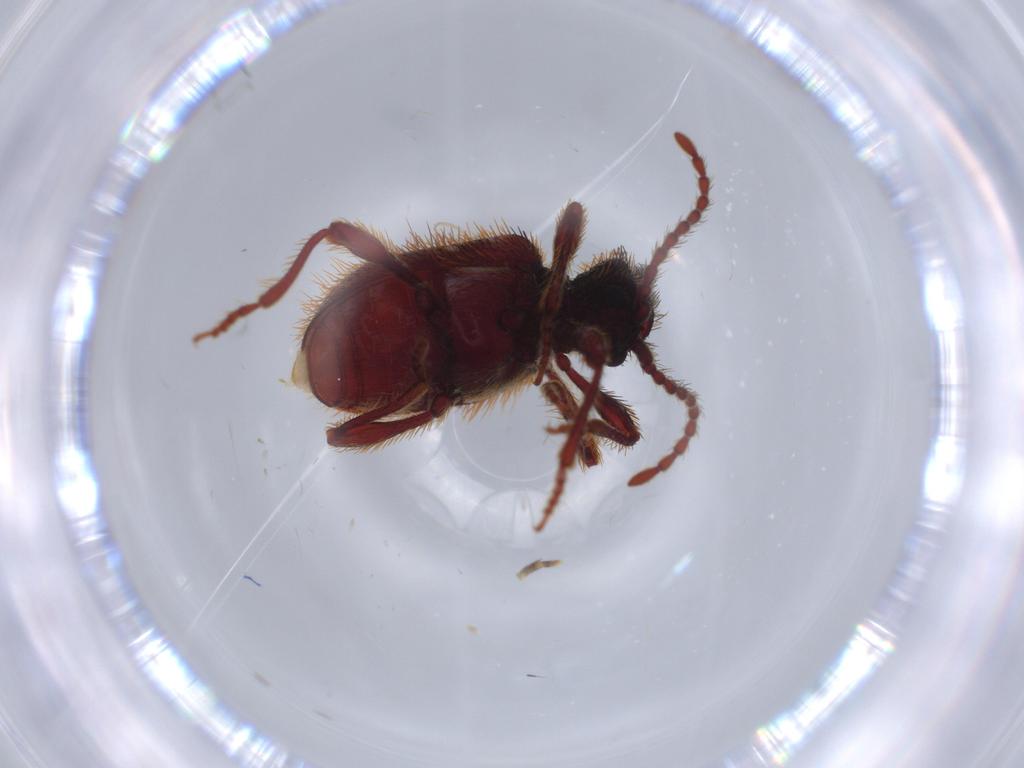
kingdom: Animalia
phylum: Arthropoda
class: Insecta
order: Coleoptera
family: Ptinidae
